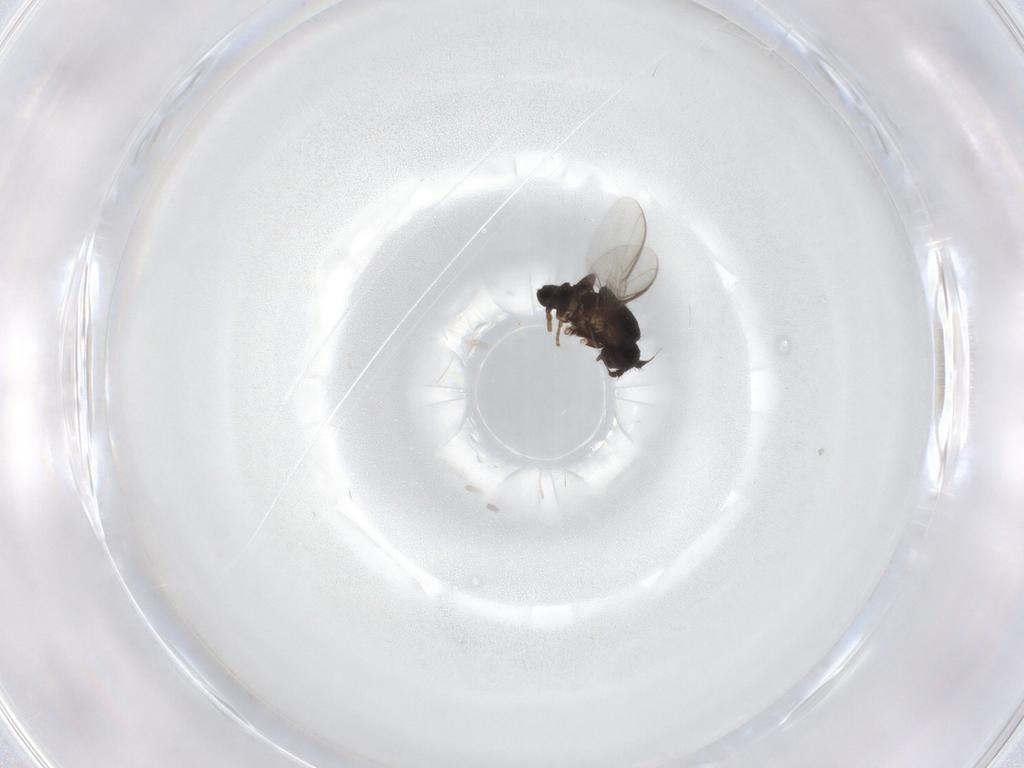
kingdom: Animalia
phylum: Arthropoda
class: Insecta
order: Diptera
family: Sphaeroceridae
